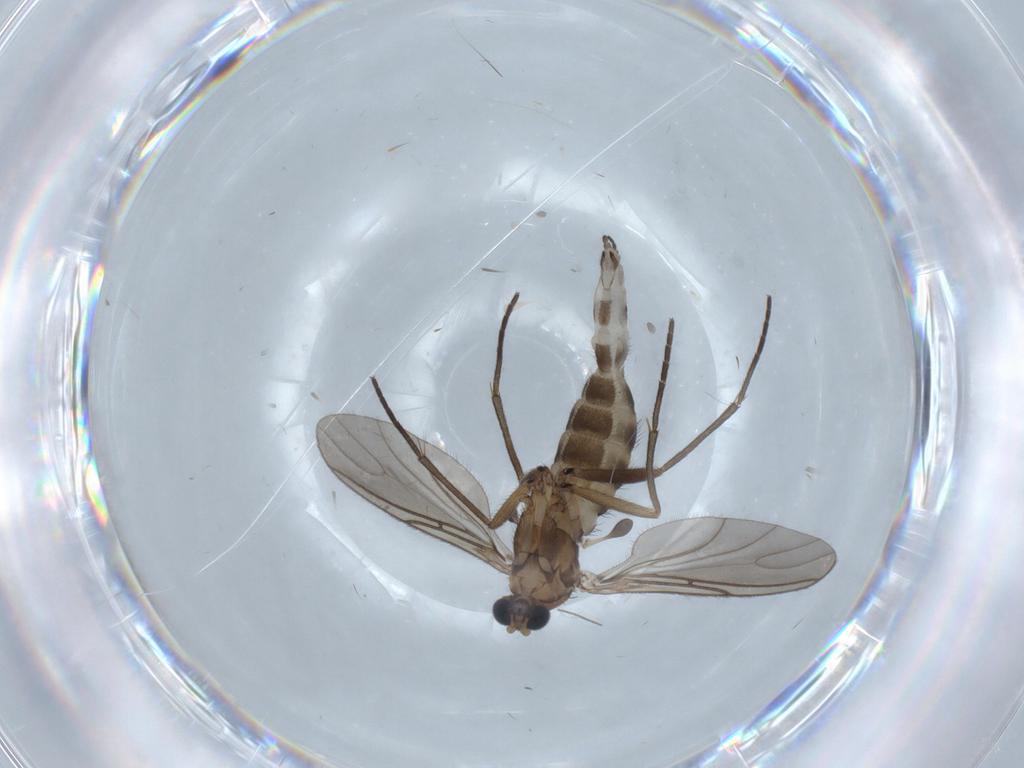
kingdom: Animalia
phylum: Arthropoda
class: Insecta
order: Diptera
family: Sciaridae
